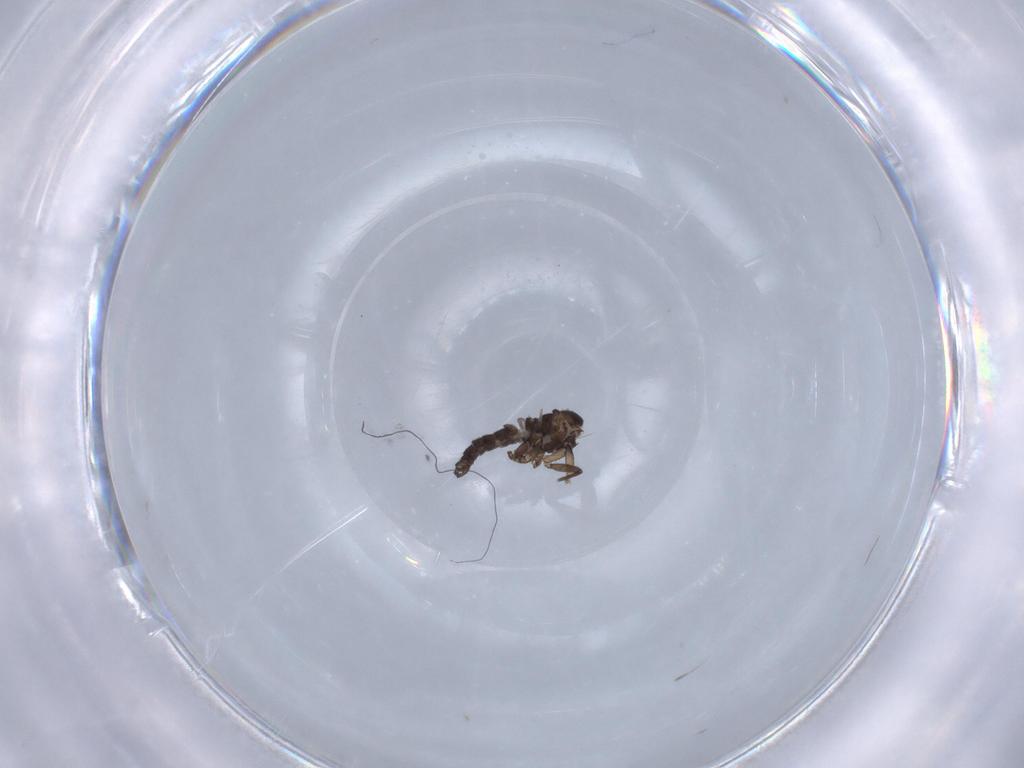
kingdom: Animalia
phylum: Arthropoda
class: Insecta
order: Diptera
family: Sciaridae
